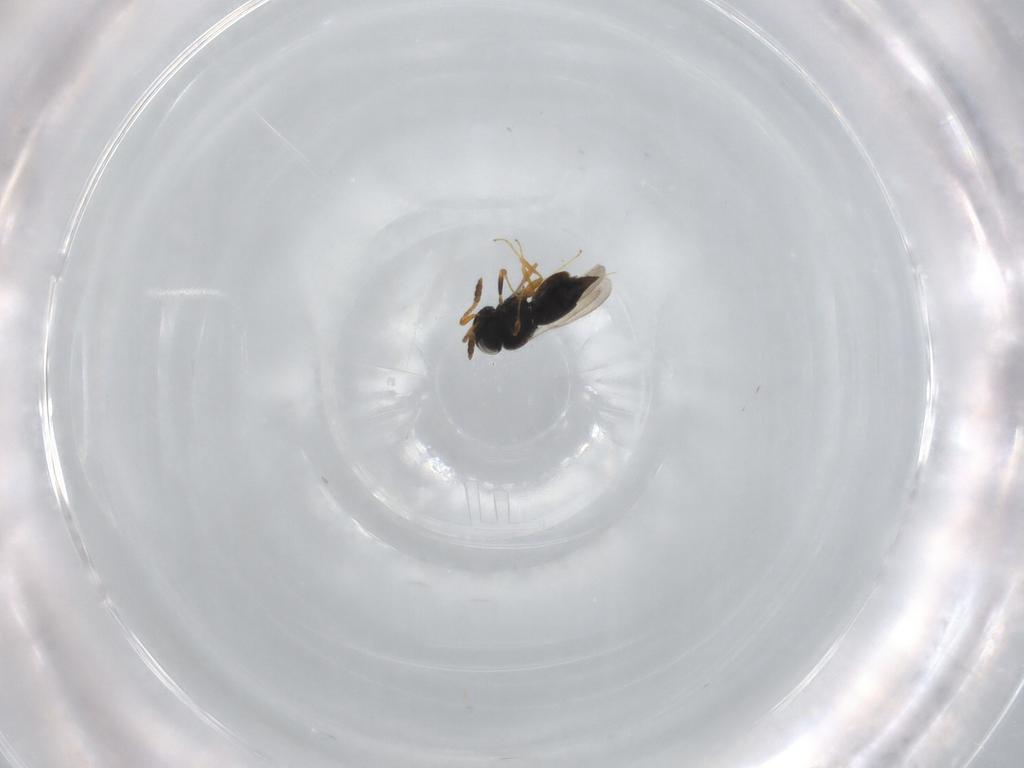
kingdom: Animalia
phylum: Arthropoda
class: Insecta
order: Hymenoptera
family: Scelionidae
